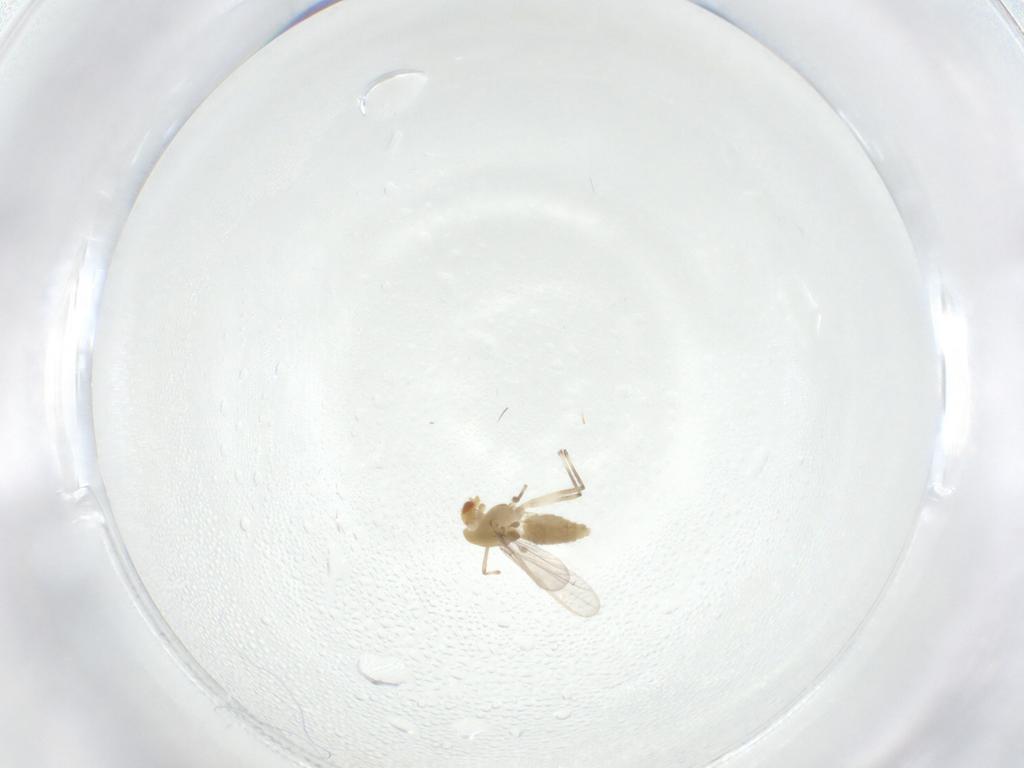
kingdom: Animalia
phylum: Arthropoda
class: Insecta
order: Diptera
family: Chironomidae
